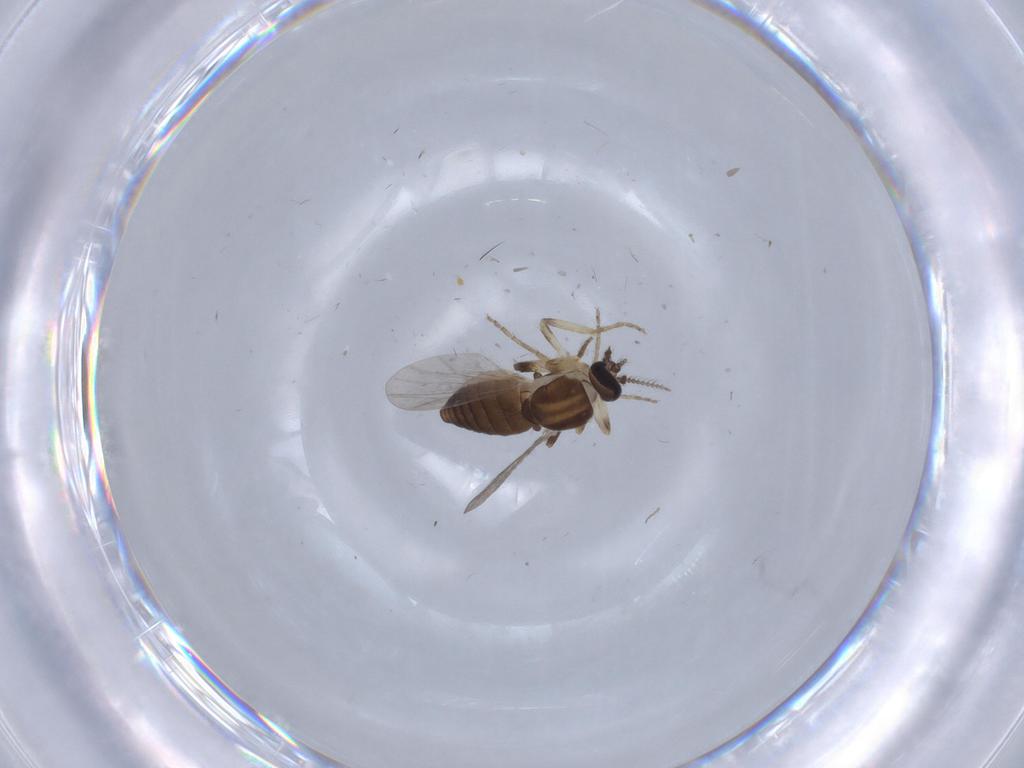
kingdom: Animalia
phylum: Arthropoda
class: Insecta
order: Diptera
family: Ceratopogonidae
